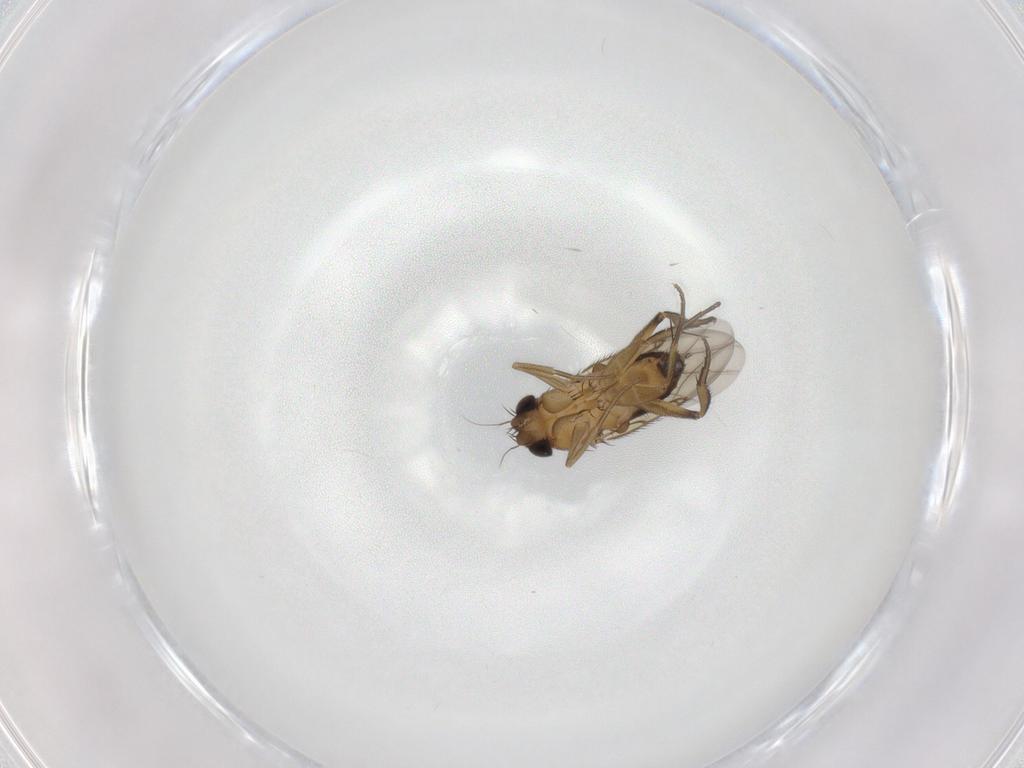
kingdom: Animalia
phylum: Arthropoda
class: Insecta
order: Diptera
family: Phoridae
